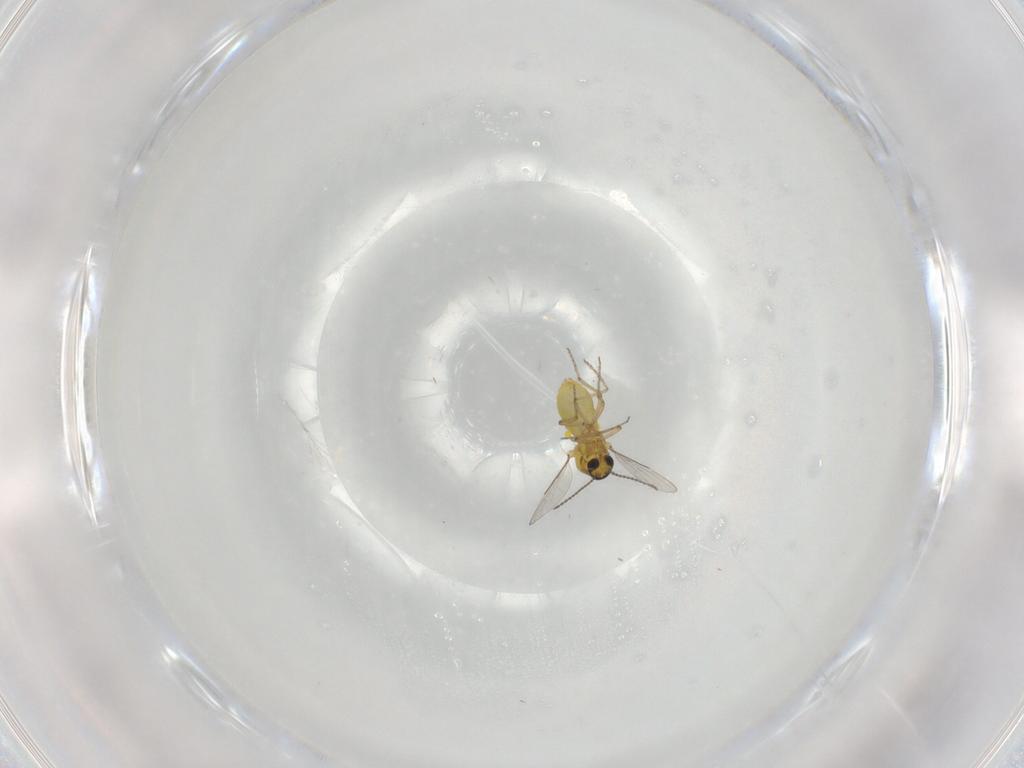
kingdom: Animalia
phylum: Arthropoda
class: Insecta
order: Diptera
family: Ceratopogonidae
